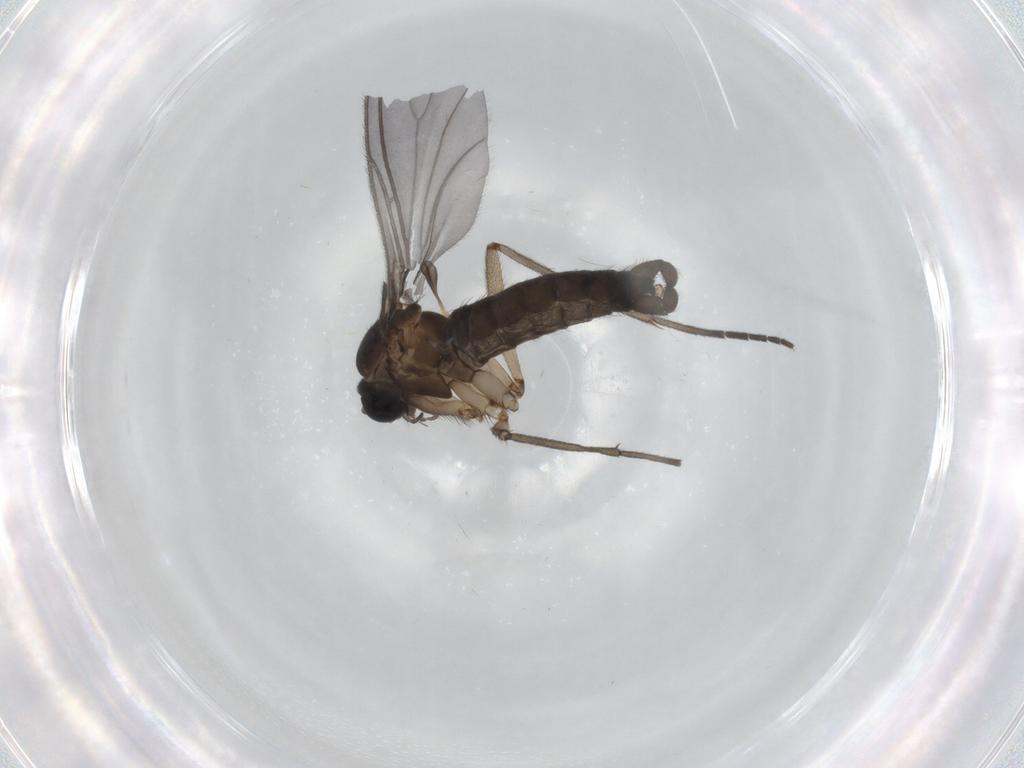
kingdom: Animalia
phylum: Arthropoda
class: Insecta
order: Diptera
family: Sciaridae
